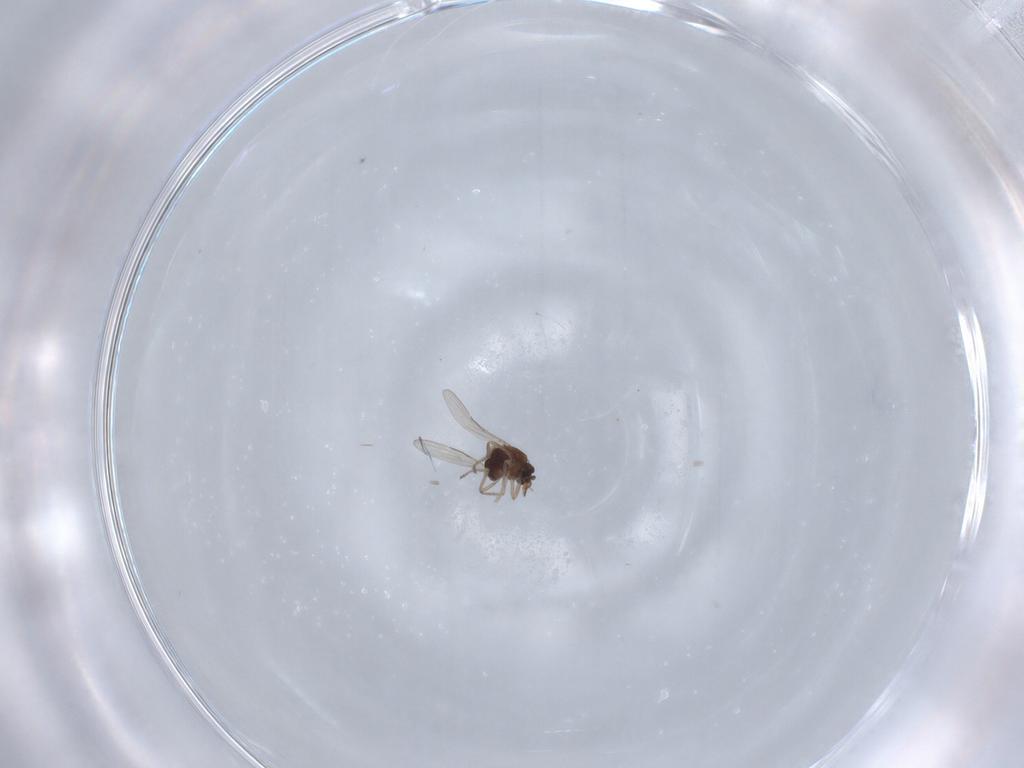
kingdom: Animalia
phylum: Arthropoda
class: Insecta
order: Diptera
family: Ceratopogonidae
